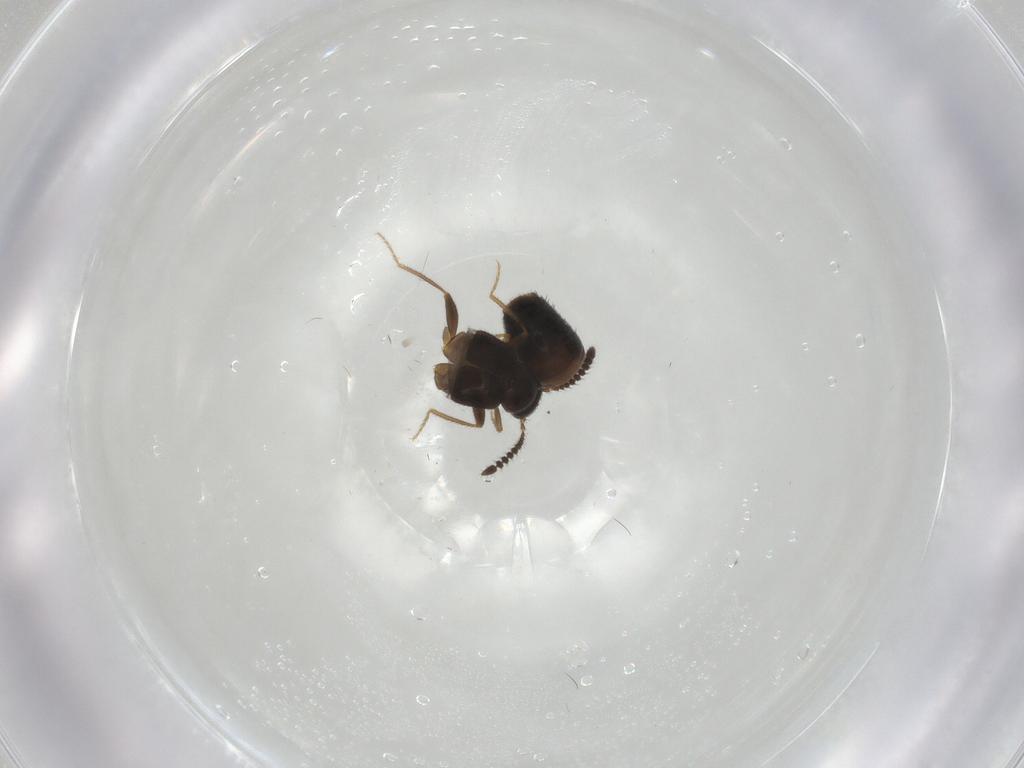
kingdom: Animalia
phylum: Arthropoda
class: Insecta
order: Coleoptera
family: Staphylinidae
